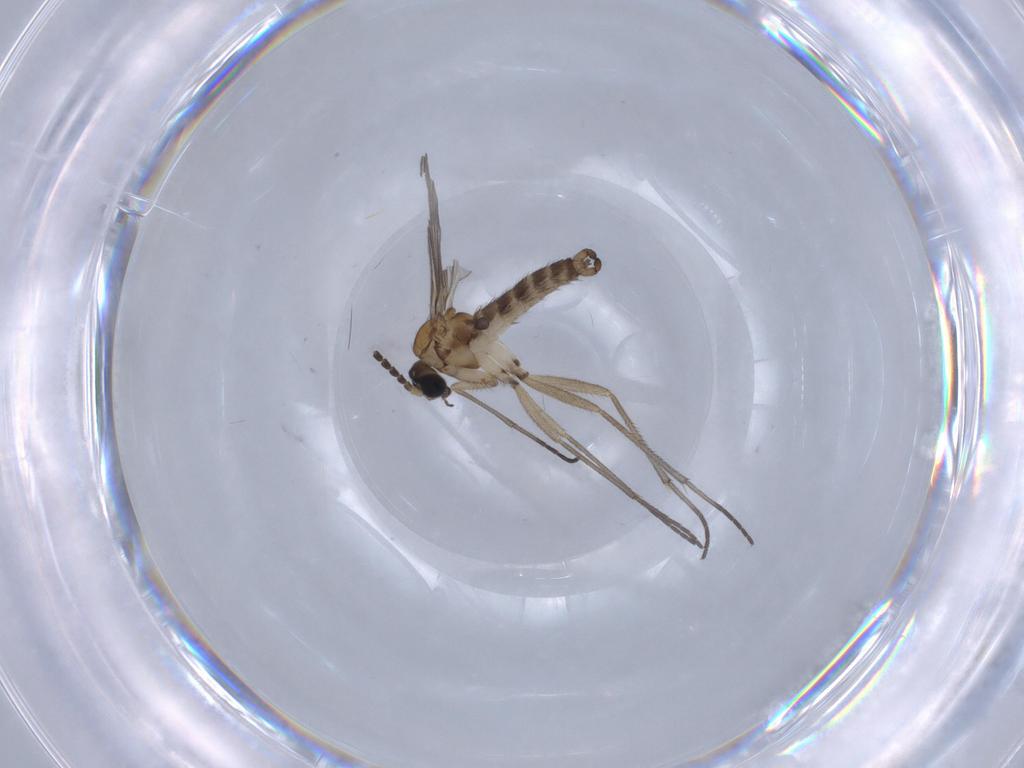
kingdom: Animalia
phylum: Arthropoda
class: Insecta
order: Diptera
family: Sciaridae
